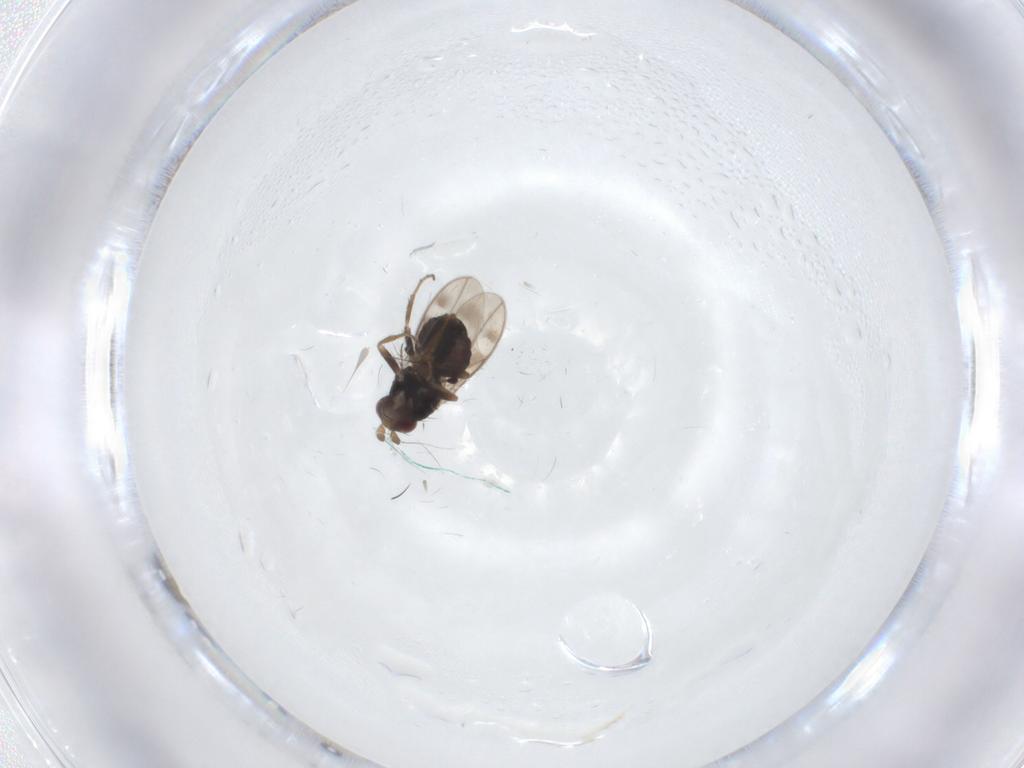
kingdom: Animalia
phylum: Arthropoda
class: Insecta
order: Diptera
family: Sphaeroceridae
